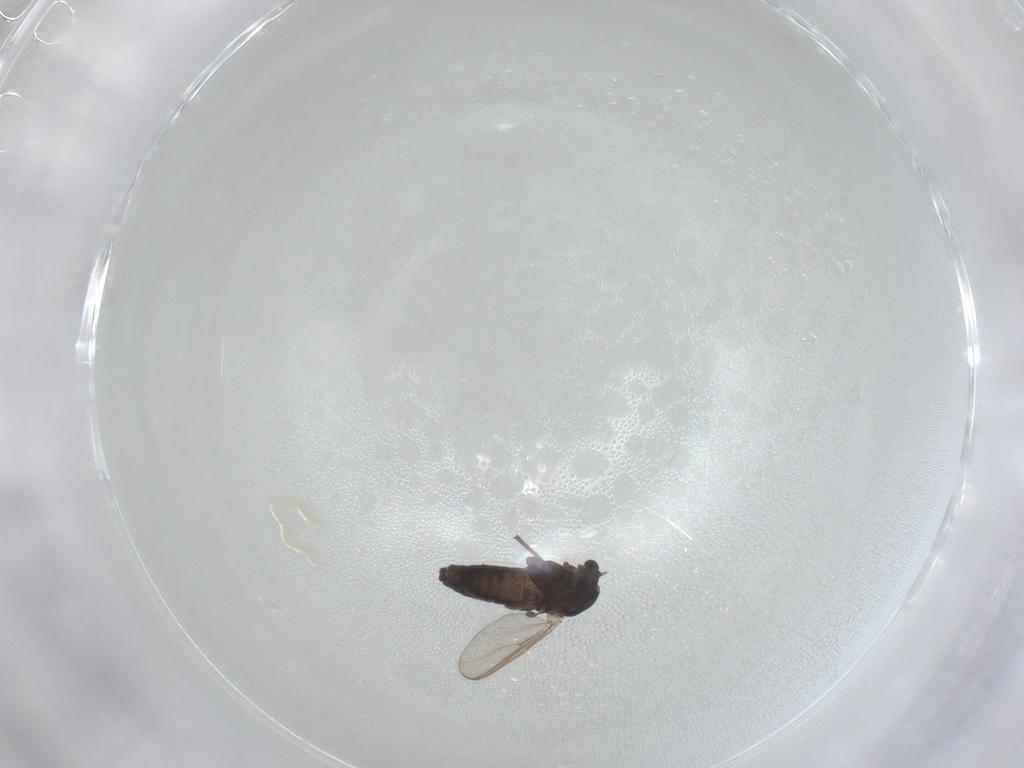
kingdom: Animalia
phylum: Arthropoda
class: Insecta
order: Diptera
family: Chironomidae
